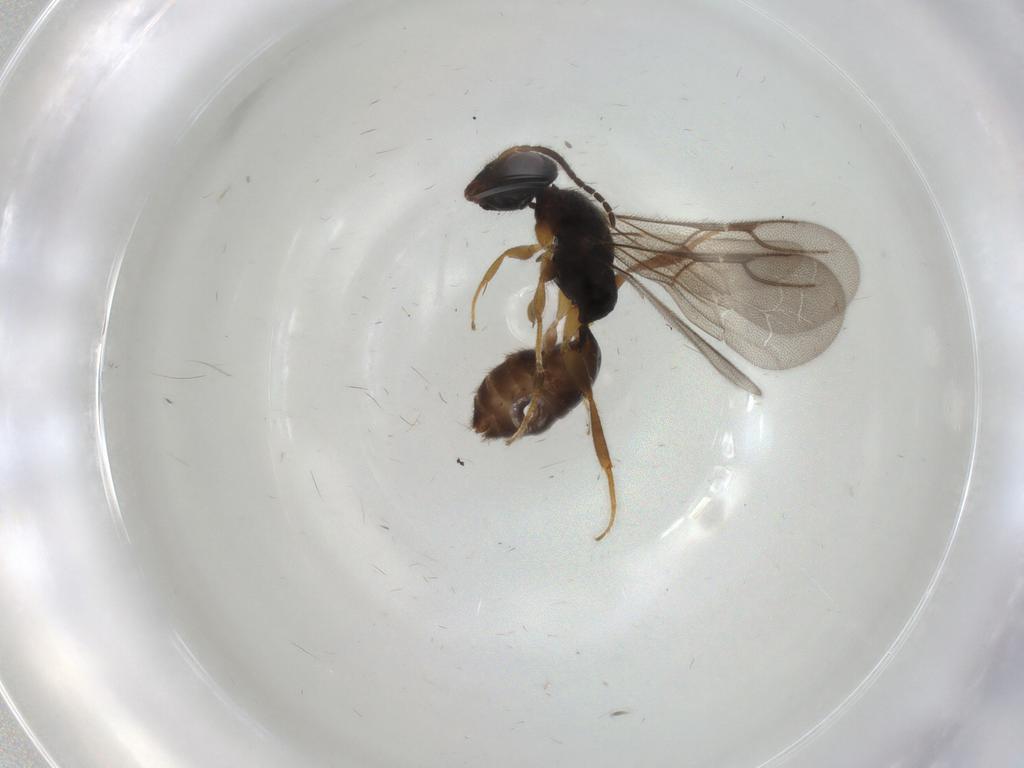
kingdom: Animalia
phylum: Arthropoda
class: Insecta
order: Hymenoptera
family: Bethylidae
